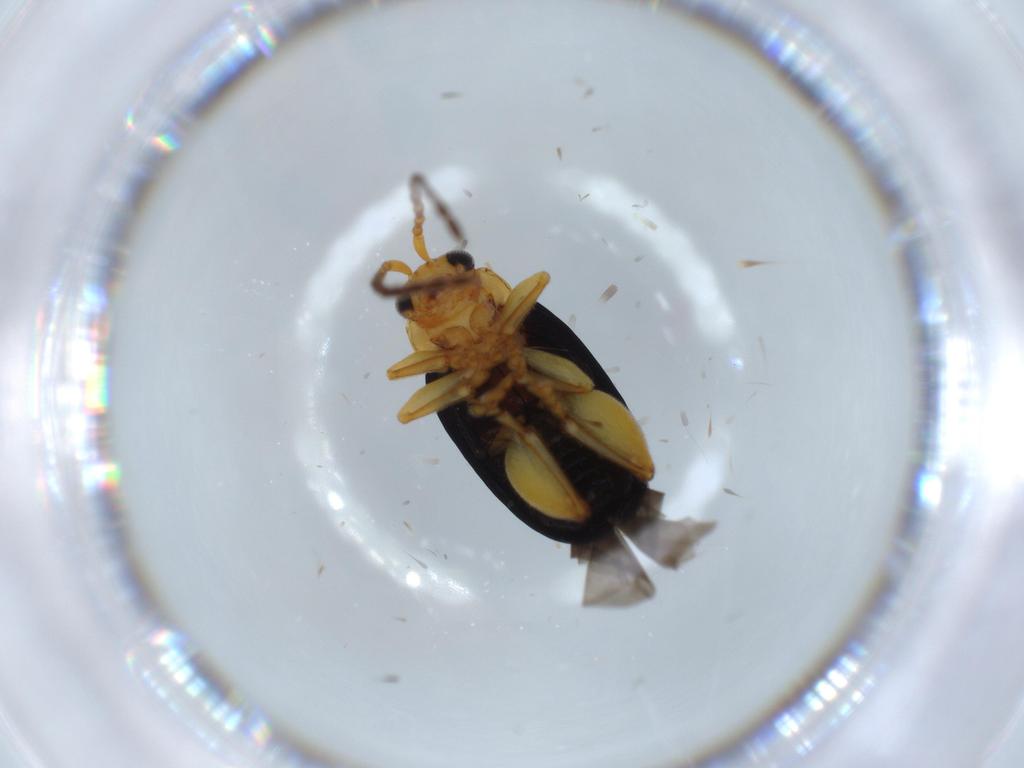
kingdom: Animalia
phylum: Arthropoda
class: Insecta
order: Coleoptera
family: Chrysomelidae
